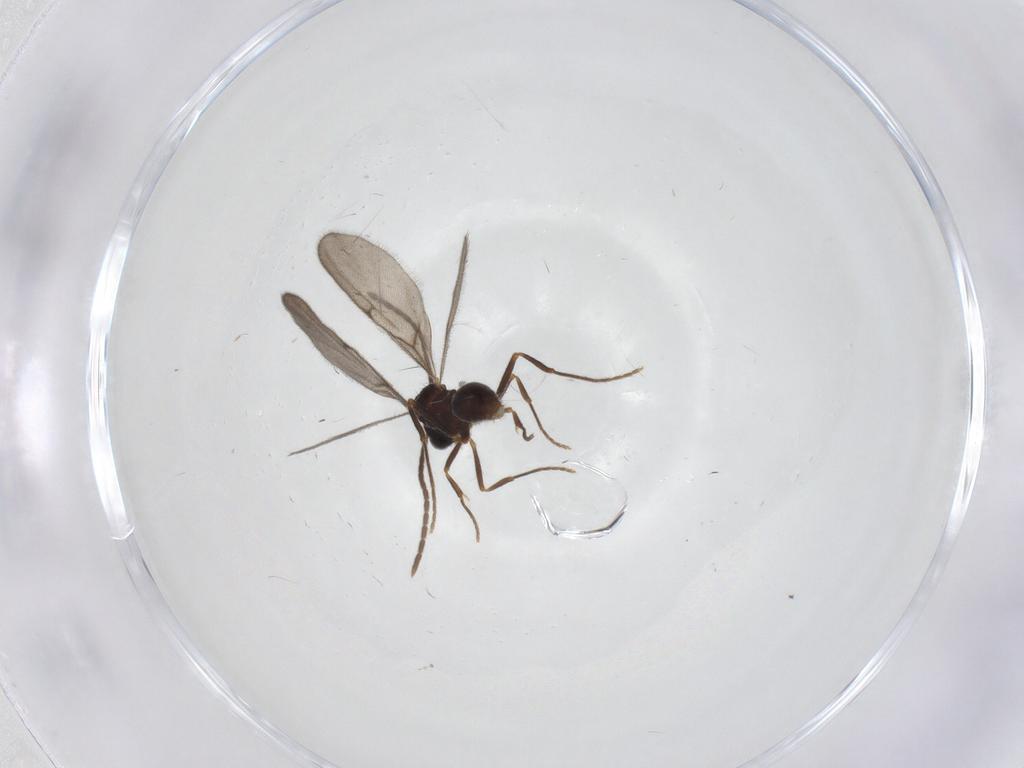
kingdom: Animalia
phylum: Arthropoda
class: Insecta
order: Hymenoptera
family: Formicidae
